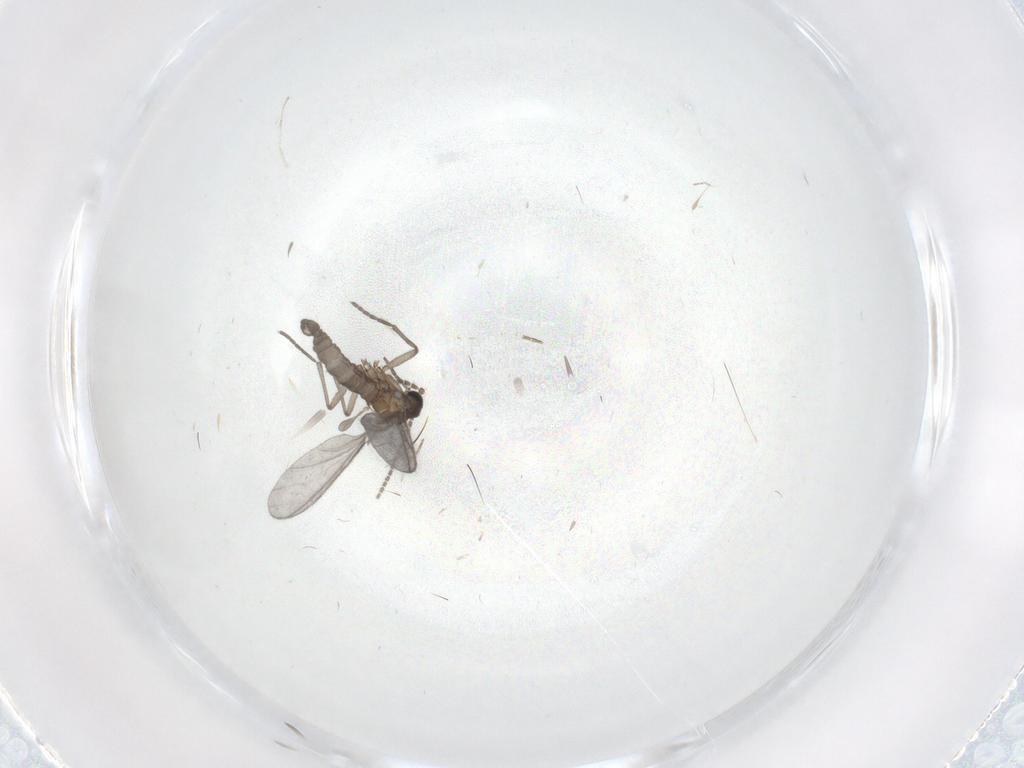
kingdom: Animalia
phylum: Arthropoda
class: Insecta
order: Diptera
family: Sciaridae
